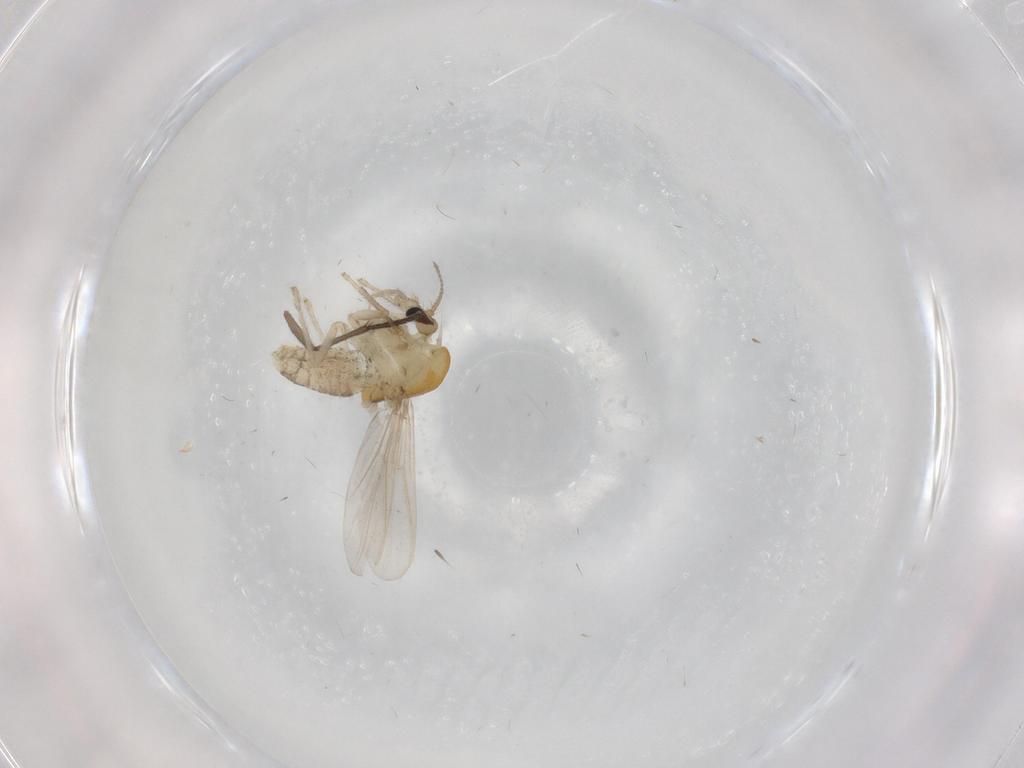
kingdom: Animalia
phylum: Arthropoda
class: Insecta
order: Diptera
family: Chironomidae
